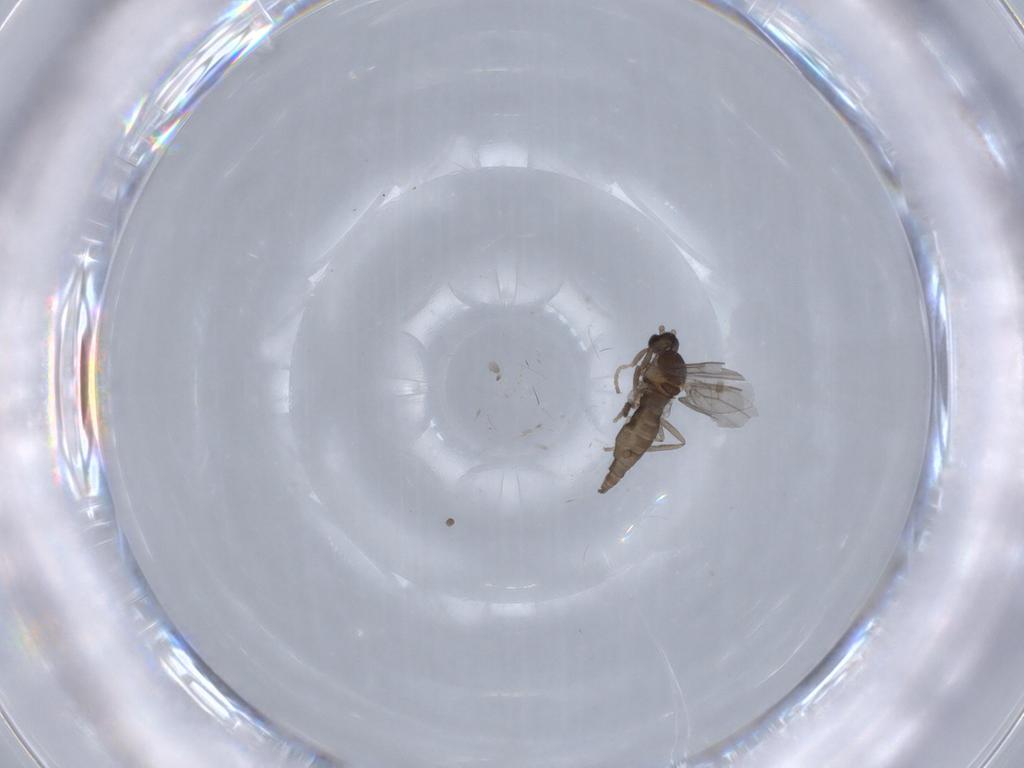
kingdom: Animalia
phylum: Arthropoda
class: Insecta
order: Diptera
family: Cecidomyiidae
